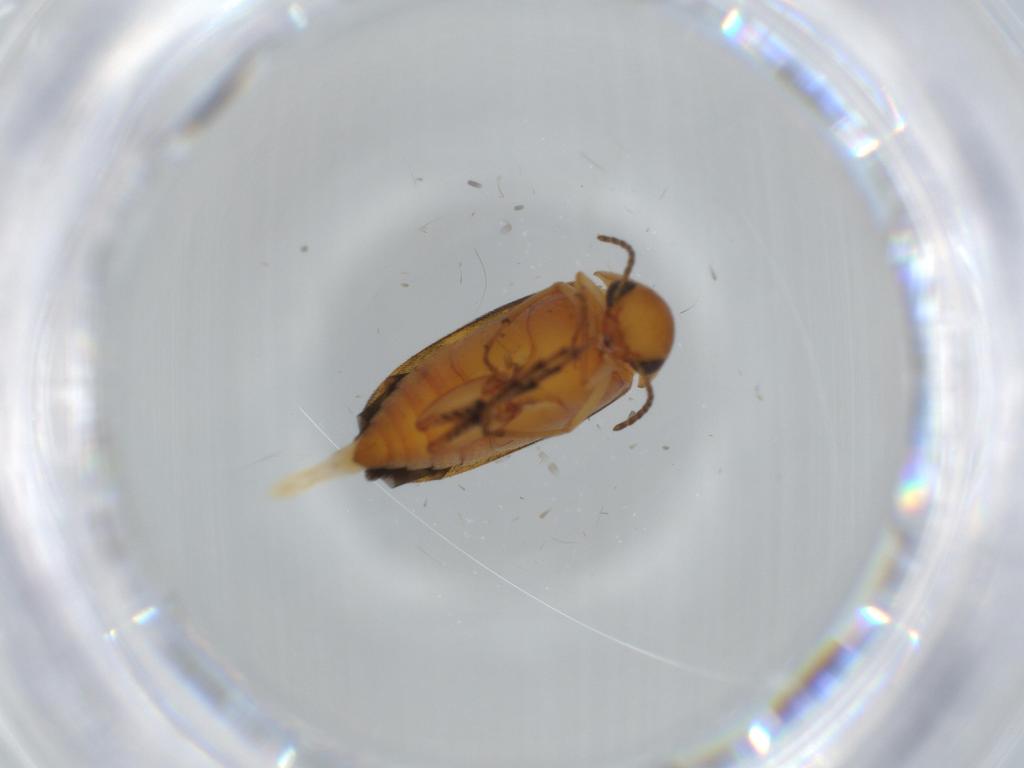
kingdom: Animalia
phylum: Arthropoda
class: Insecta
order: Coleoptera
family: Mordellidae
